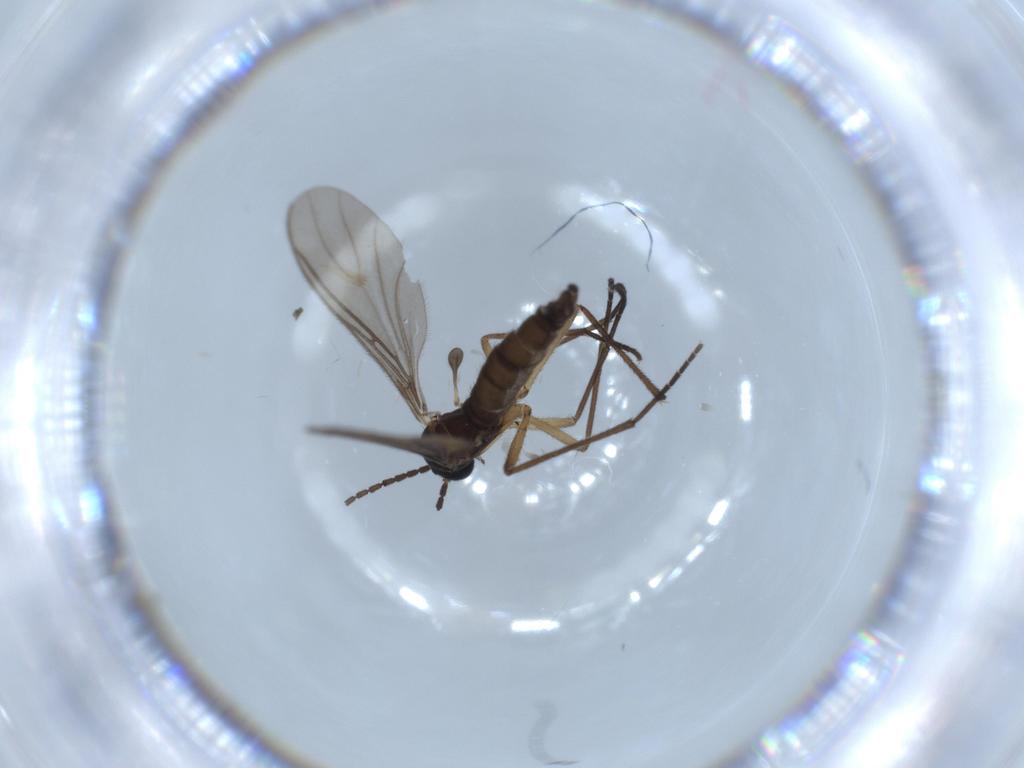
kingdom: Animalia
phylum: Arthropoda
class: Insecta
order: Diptera
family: Sciaridae
